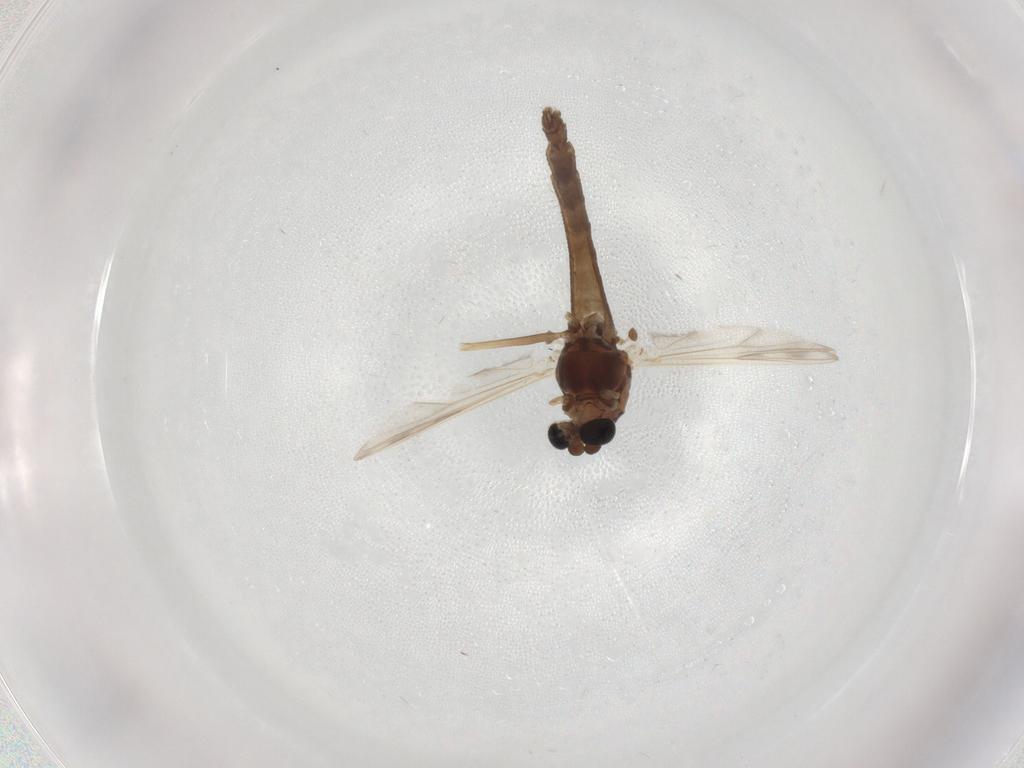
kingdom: Animalia
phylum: Arthropoda
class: Insecta
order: Diptera
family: Chironomidae
